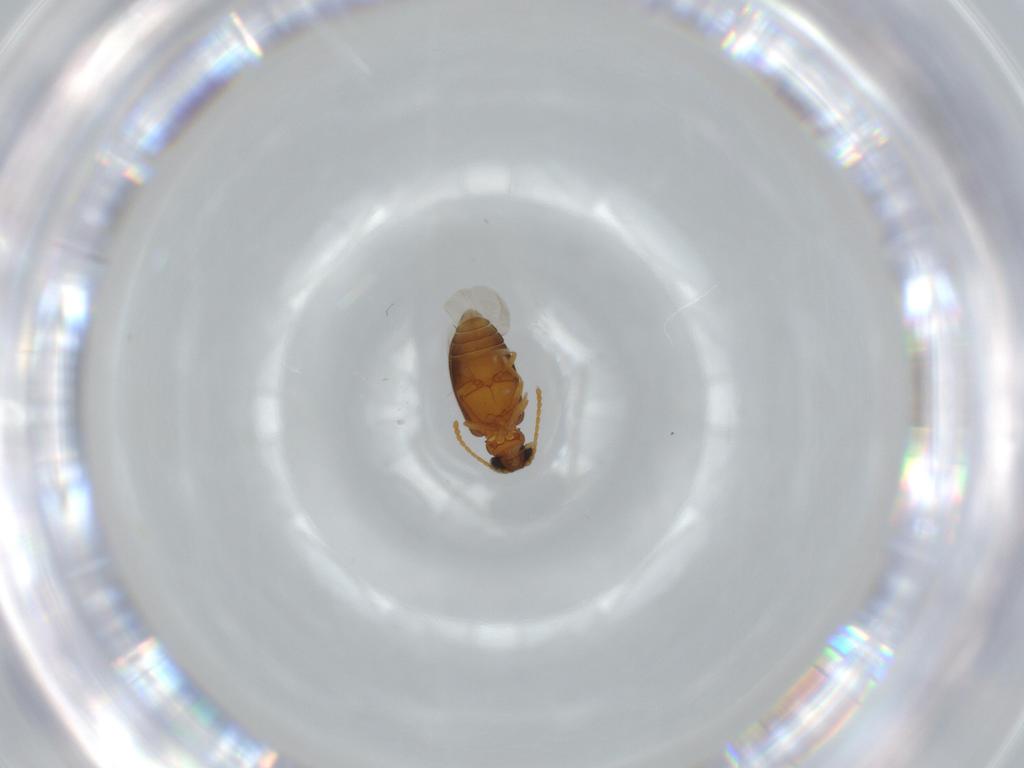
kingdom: Animalia
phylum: Arthropoda
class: Insecta
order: Coleoptera
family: Aderidae
